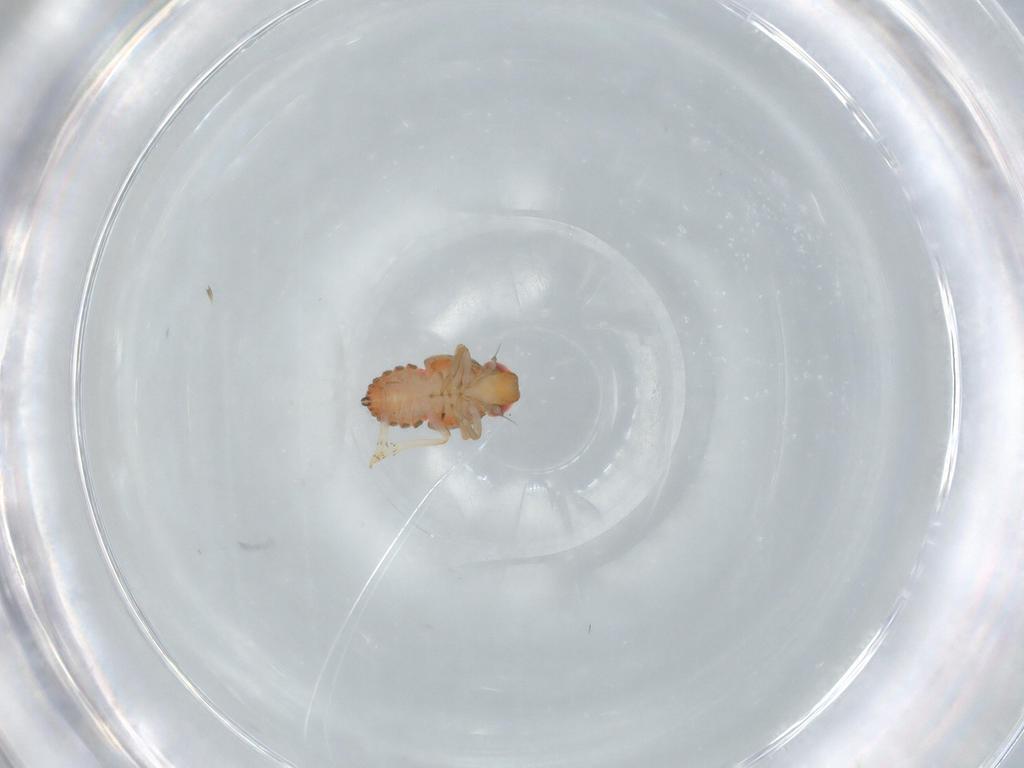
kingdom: Animalia
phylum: Arthropoda
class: Insecta
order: Hemiptera
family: Issidae
